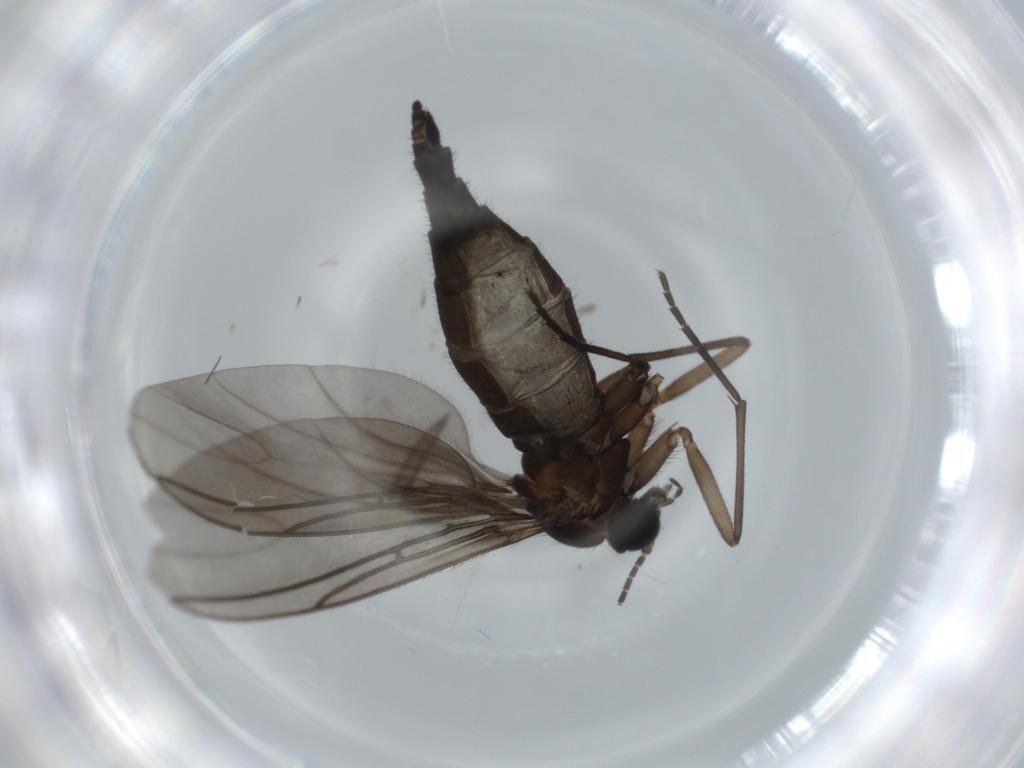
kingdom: Animalia
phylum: Arthropoda
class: Insecta
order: Diptera
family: Sciaridae
